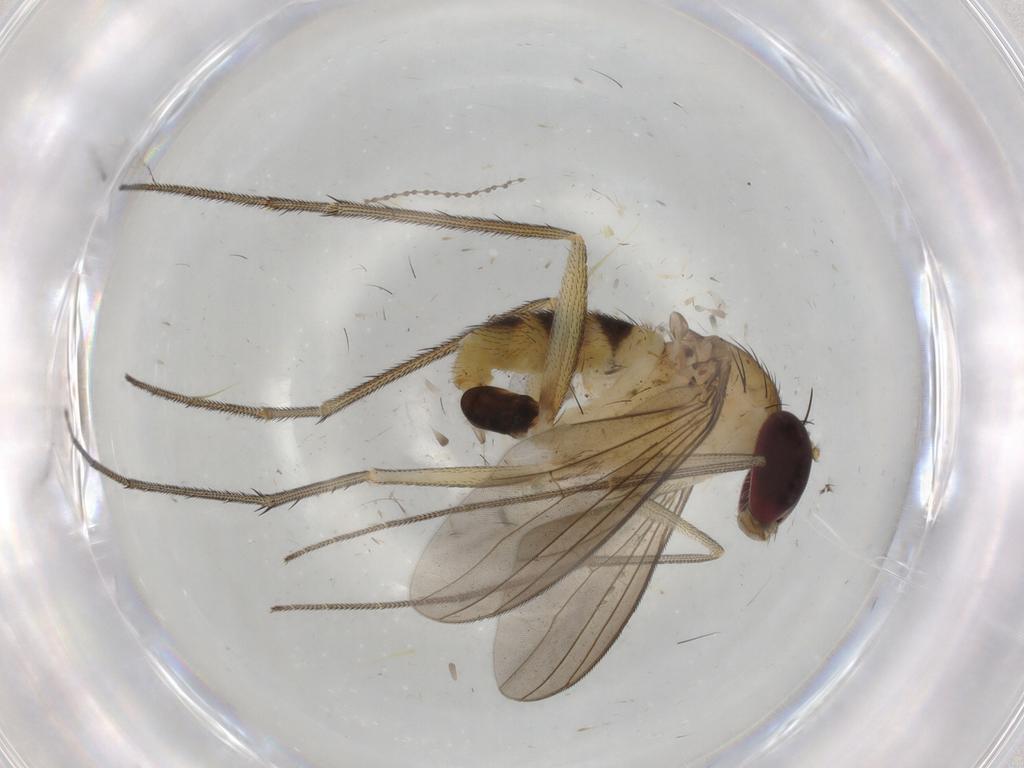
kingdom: Animalia
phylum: Arthropoda
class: Insecta
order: Diptera
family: Dolichopodidae
